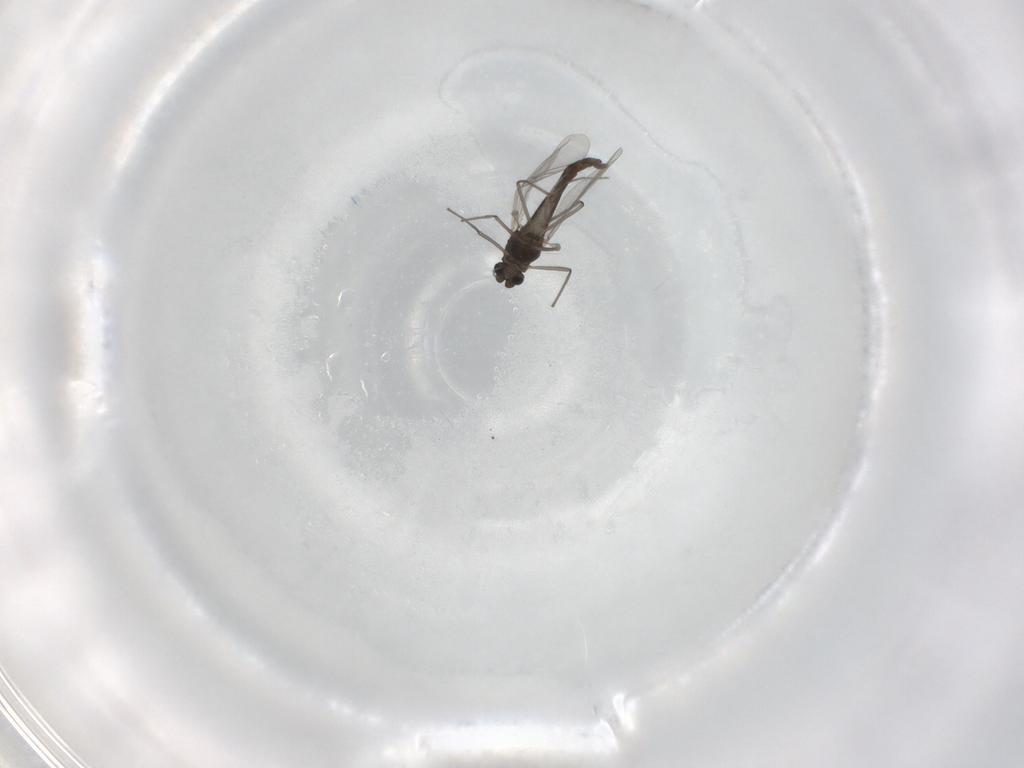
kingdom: Animalia
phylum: Arthropoda
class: Insecta
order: Diptera
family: Chironomidae
